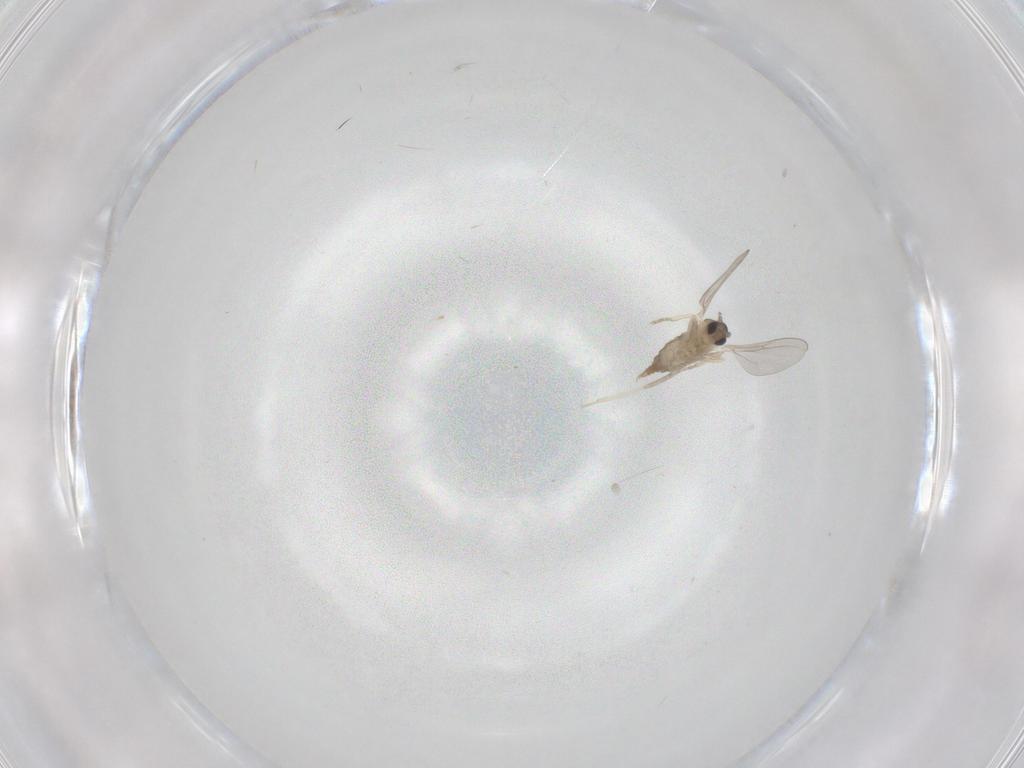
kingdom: Animalia
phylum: Arthropoda
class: Insecta
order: Diptera
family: Cecidomyiidae
